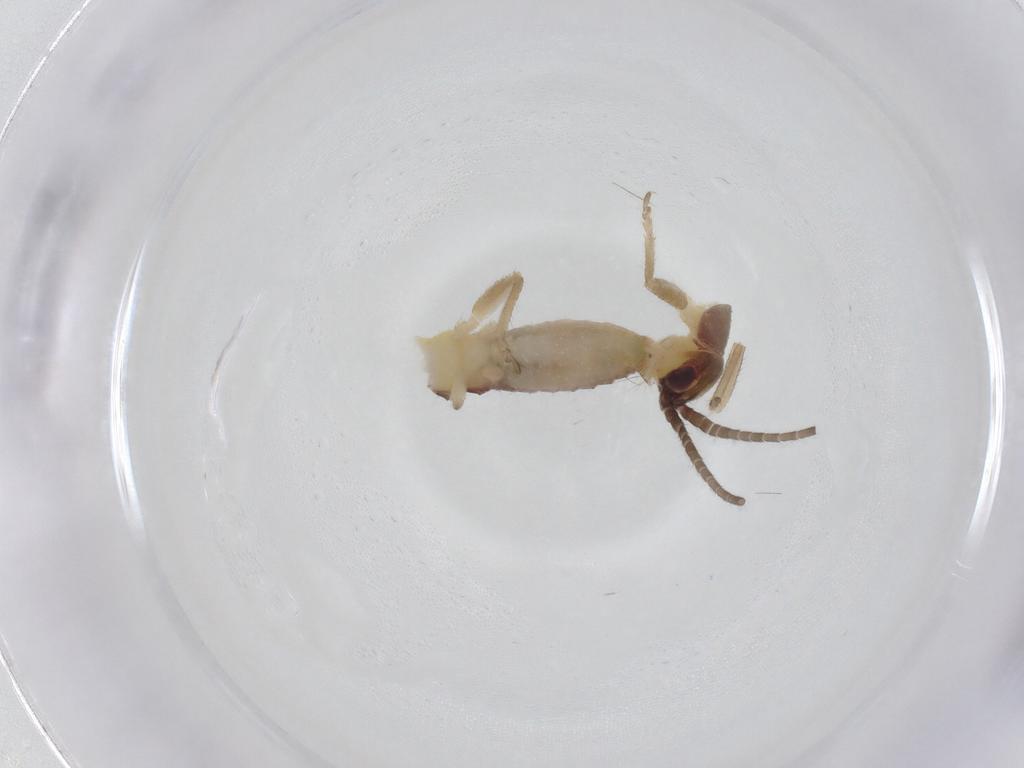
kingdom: Animalia
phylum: Arthropoda
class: Insecta
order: Orthoptera
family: Gryllidae
